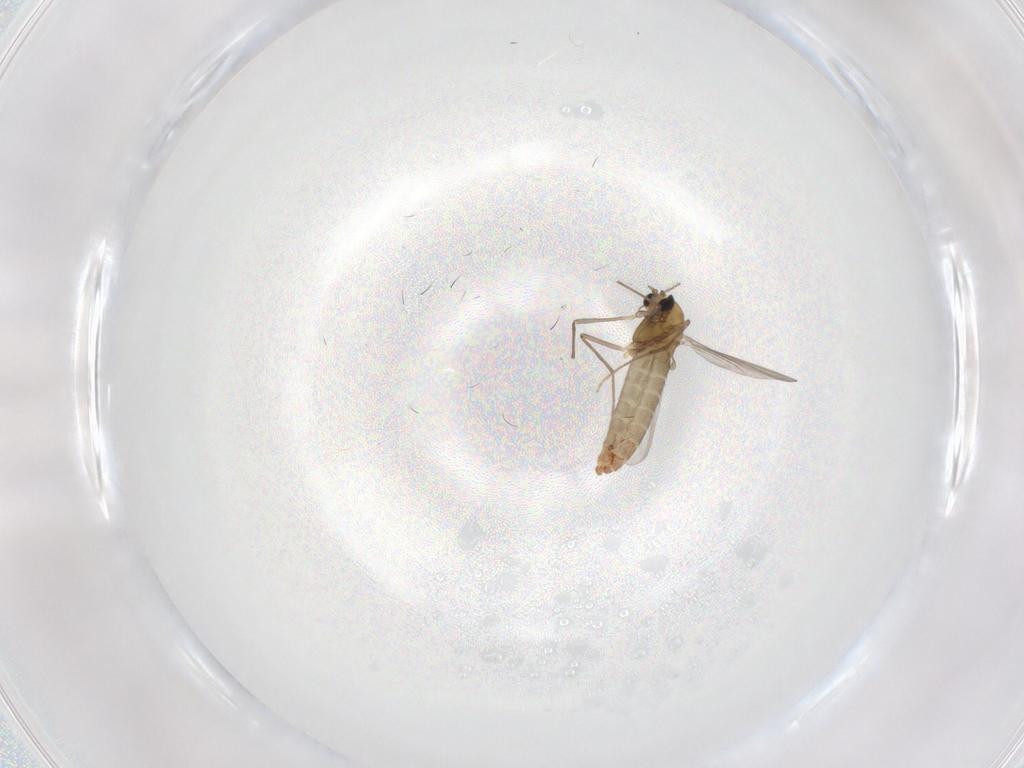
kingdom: Animalia
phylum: Arthropoda
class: Insecta
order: Diptera
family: Chironomidae
